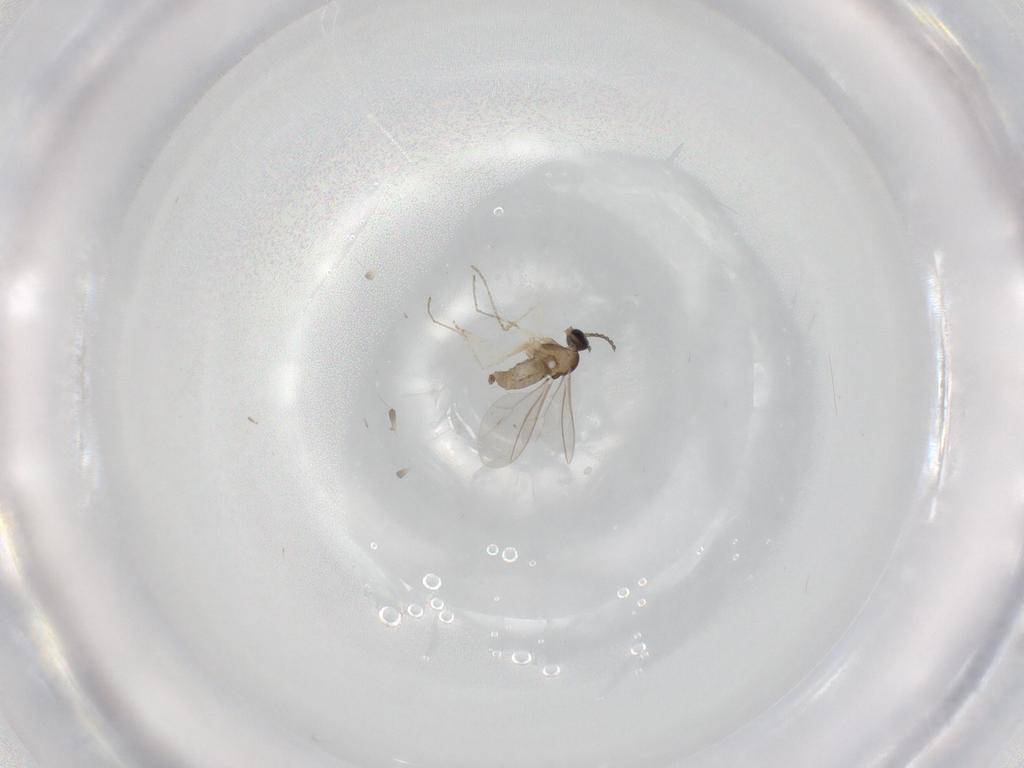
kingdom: Animalia
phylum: Arthropoda
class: Insecta
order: Diptera
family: Cecidomyiidae
